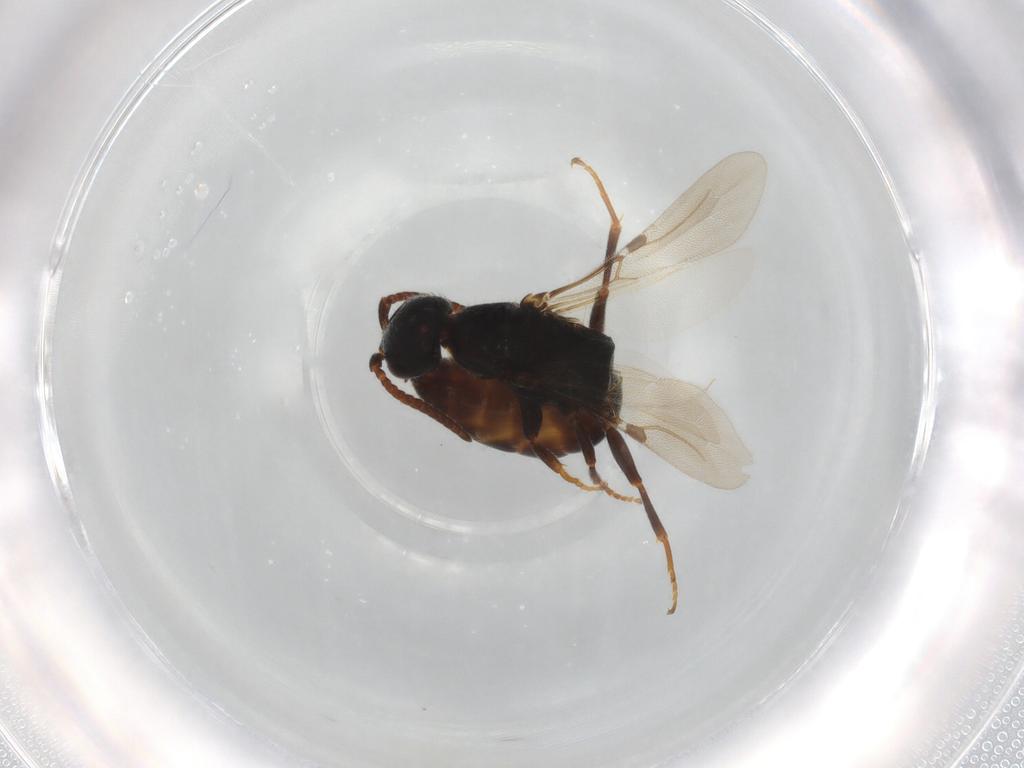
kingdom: Animalia
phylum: Arthropoda
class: Insecta
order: Hymenoptera
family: Bethylidae
